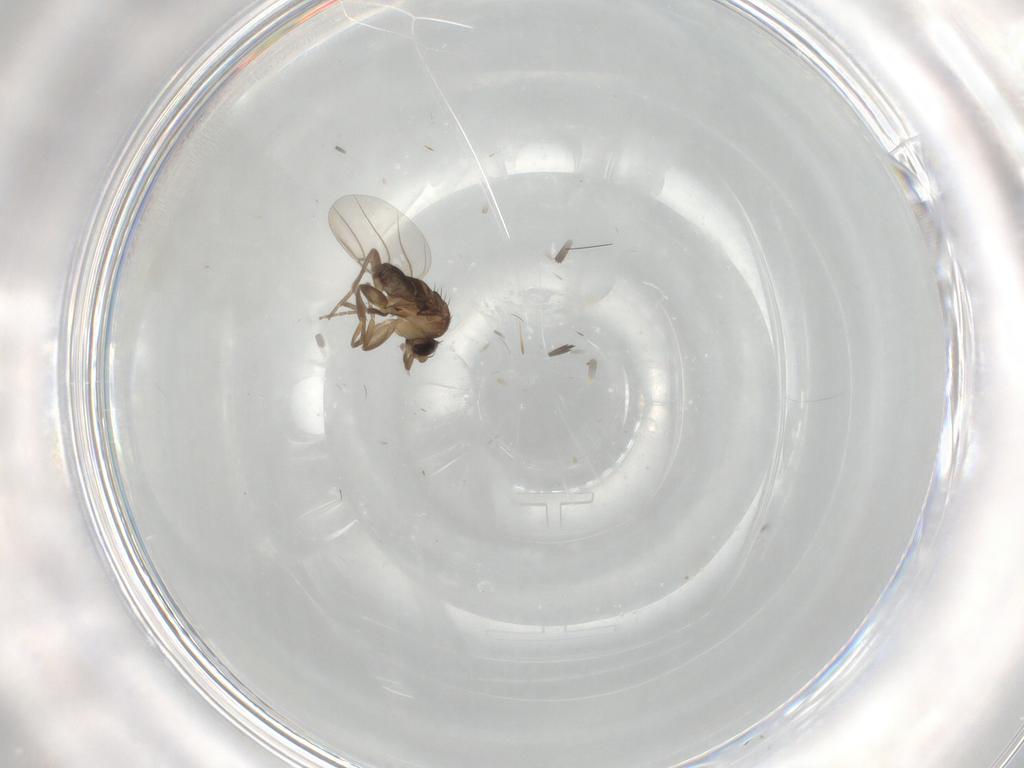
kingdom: Animalia
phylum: Arthropoda
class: Insecta
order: Diptera
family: Phoridae
